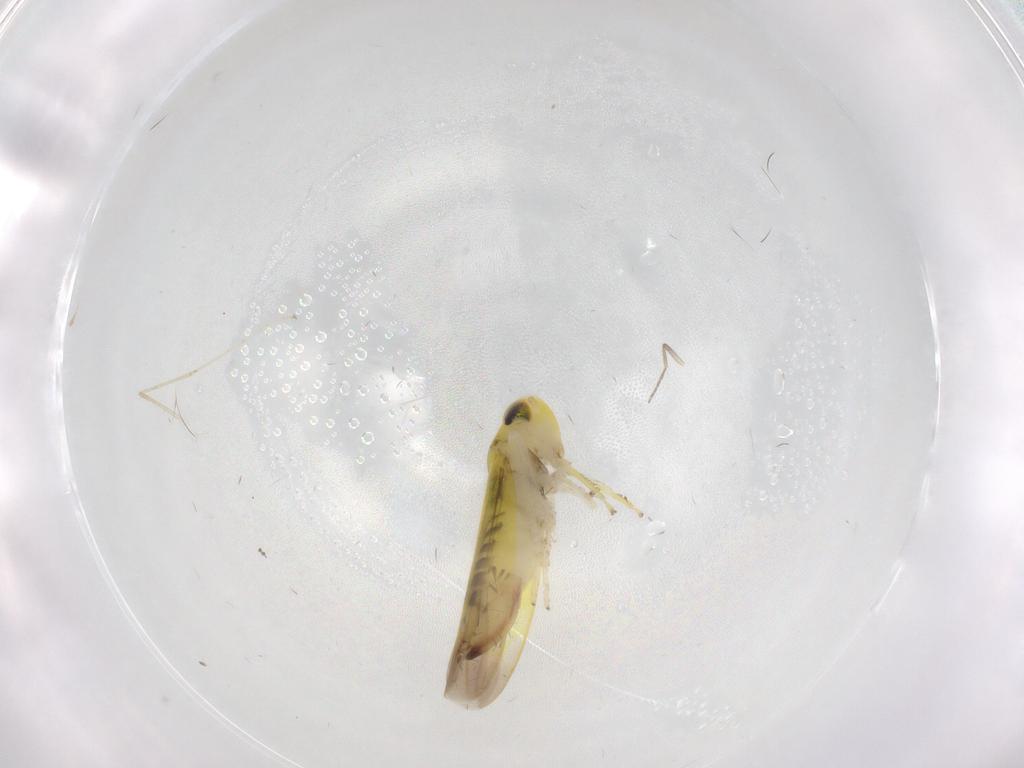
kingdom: Animalia
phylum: Arthropoda
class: Insecta
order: Hemiptera
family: Cicadellidae
